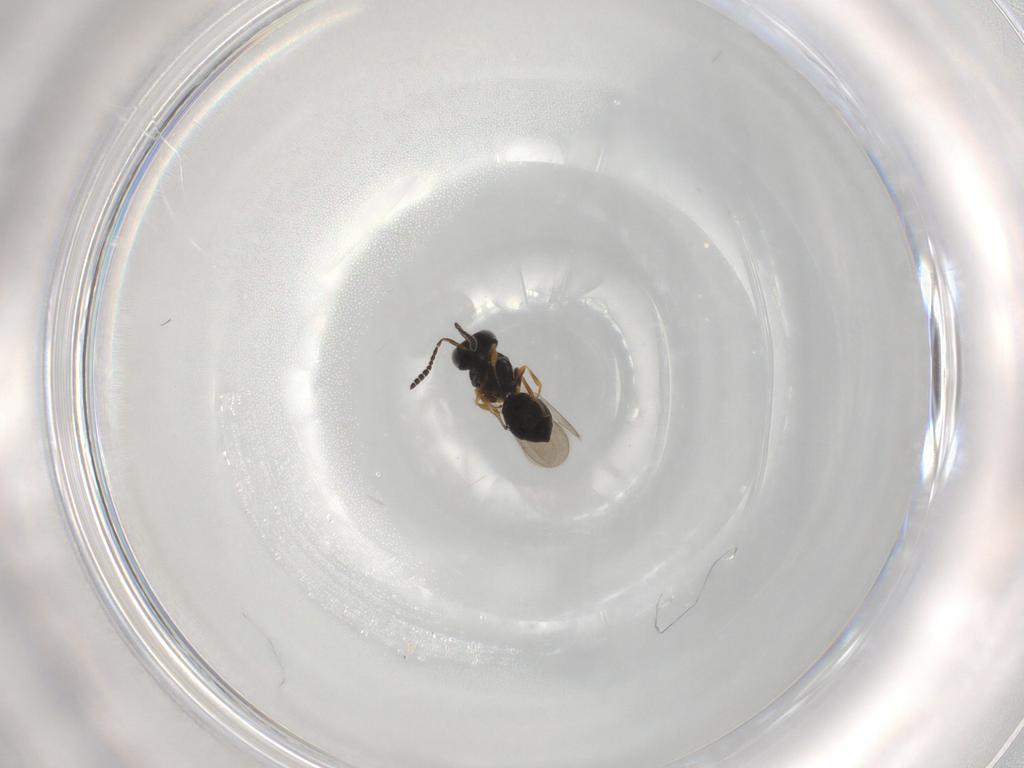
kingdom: Animalia
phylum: Arthropoda
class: Insecta
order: Hymenoptera
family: Scelionidae
